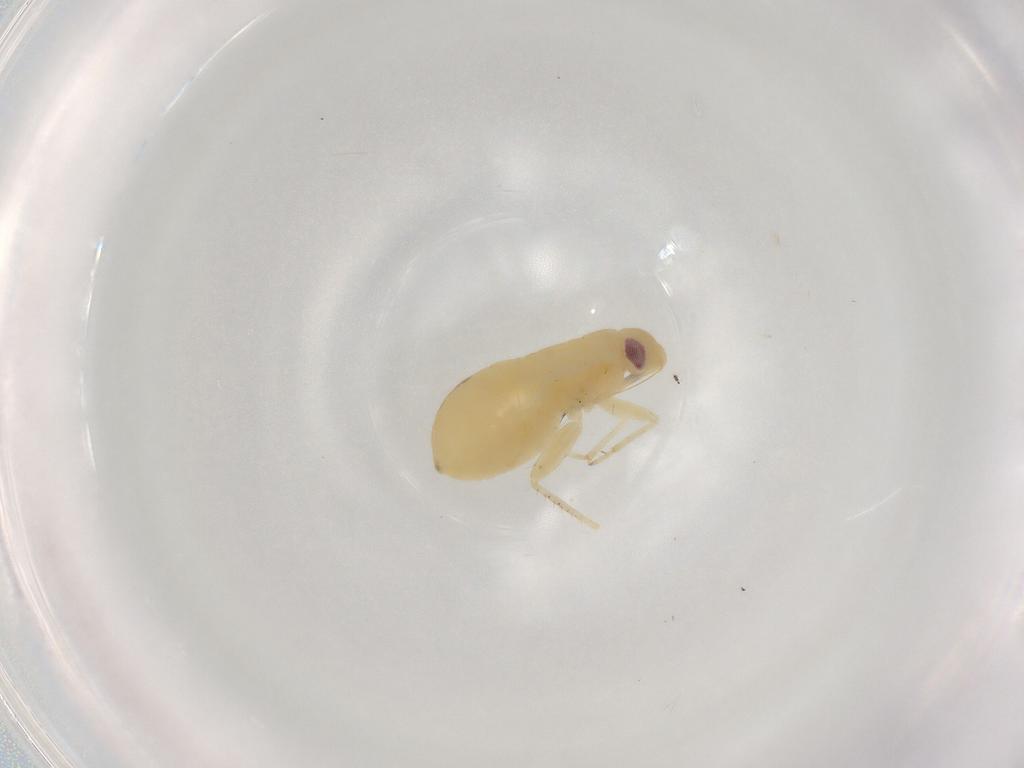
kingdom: Animalia
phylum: Arthropoda
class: Insecta
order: Hemiptera
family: Miridae
